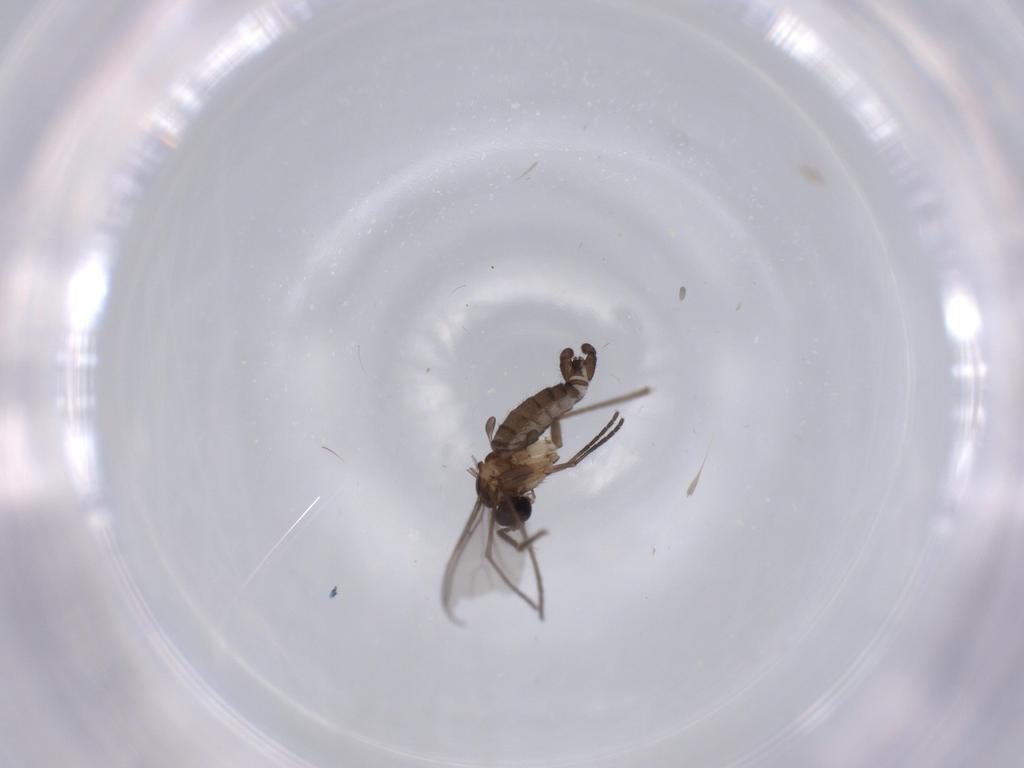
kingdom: Animalia
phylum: Arthropoda
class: Insecta
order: Diptera
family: Sciaridae
